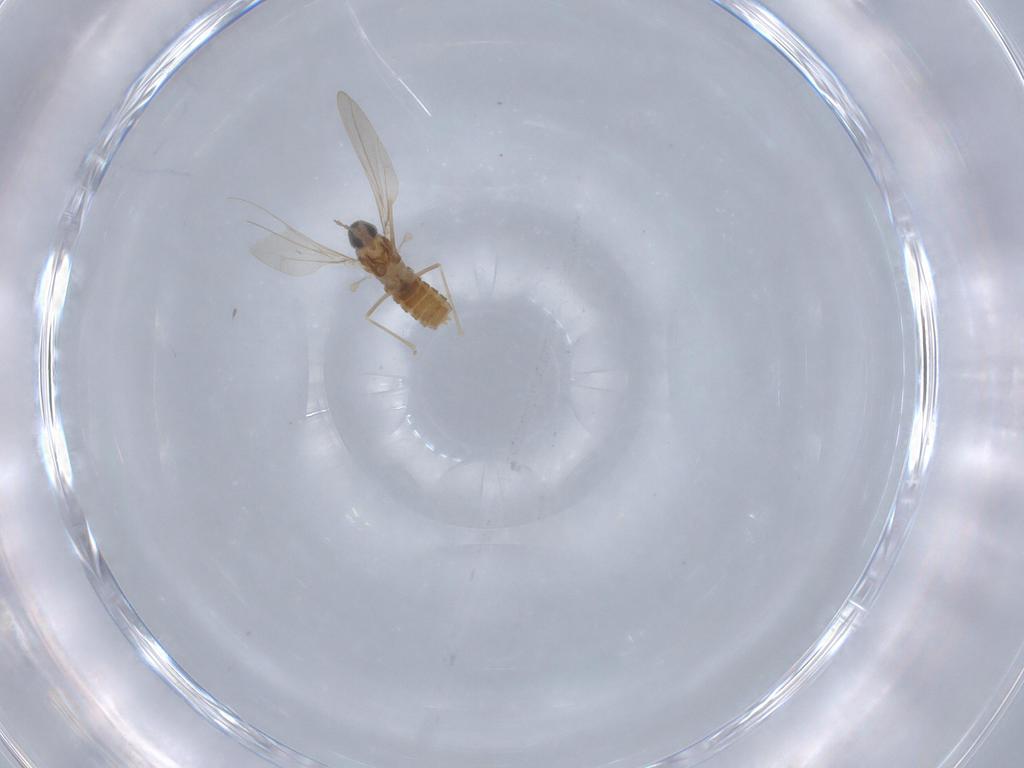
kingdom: Animalia
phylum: Arthropoda
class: Insecta
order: Diptera
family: Cecidomyiidae
